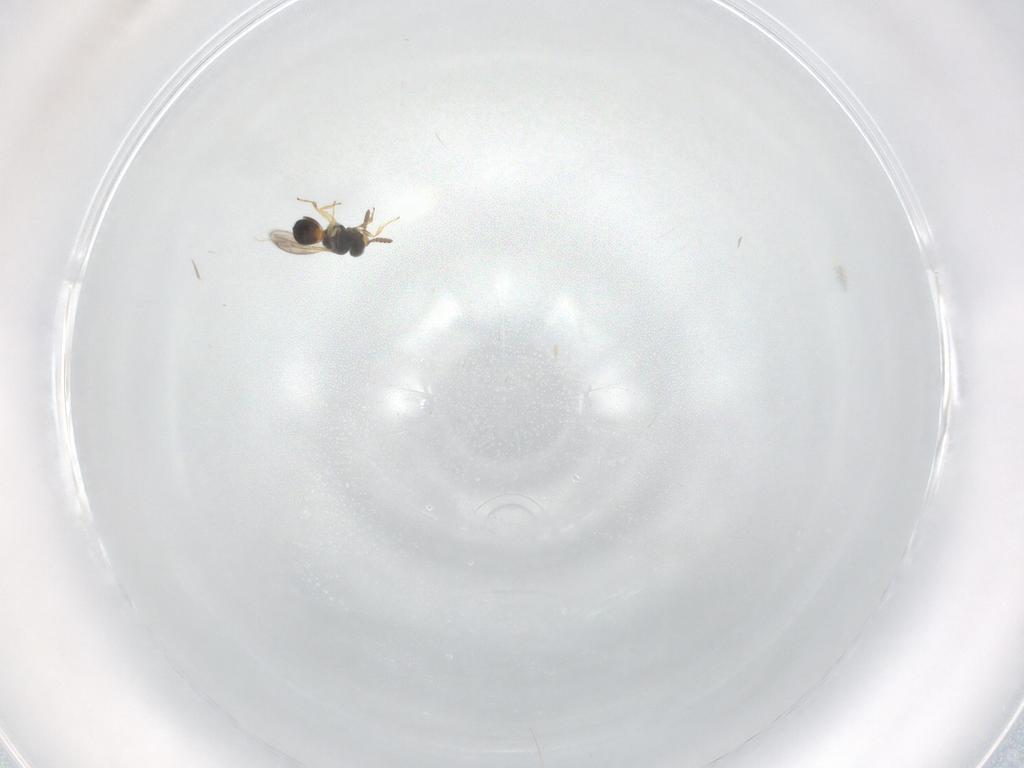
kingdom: Animalia
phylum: Arthropoda
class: Insecta
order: Hymenoptera
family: Scelionidae
